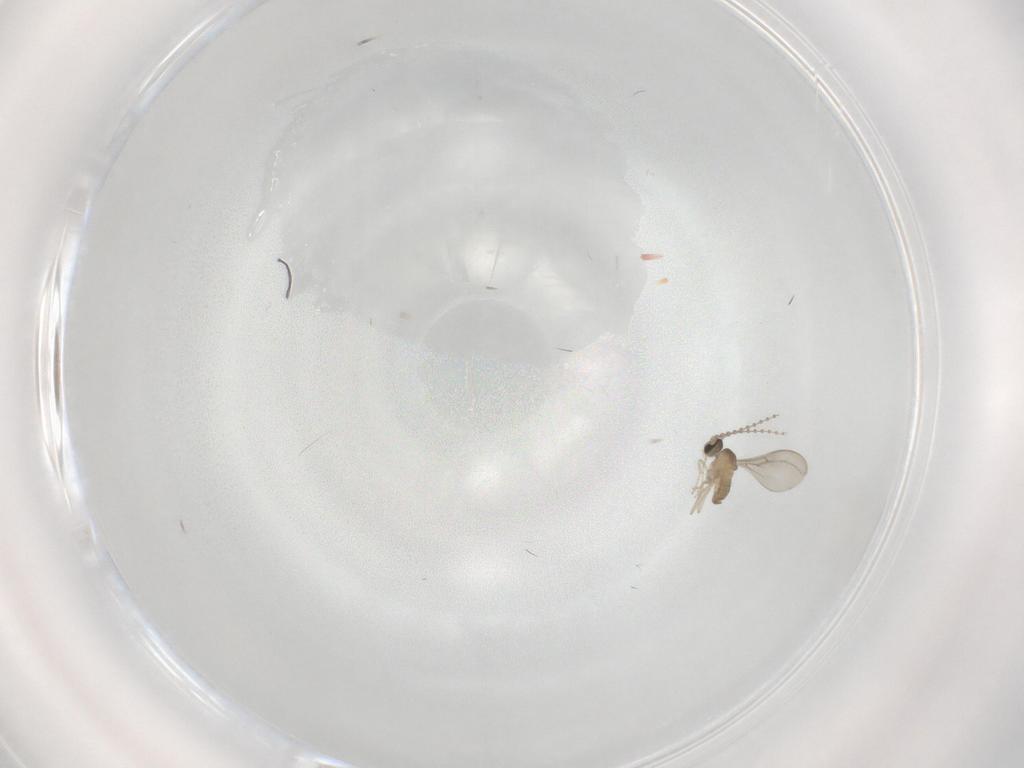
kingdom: Animalia
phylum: Arthropoda
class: Insecta
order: Diptera
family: Cecidomyiidae
